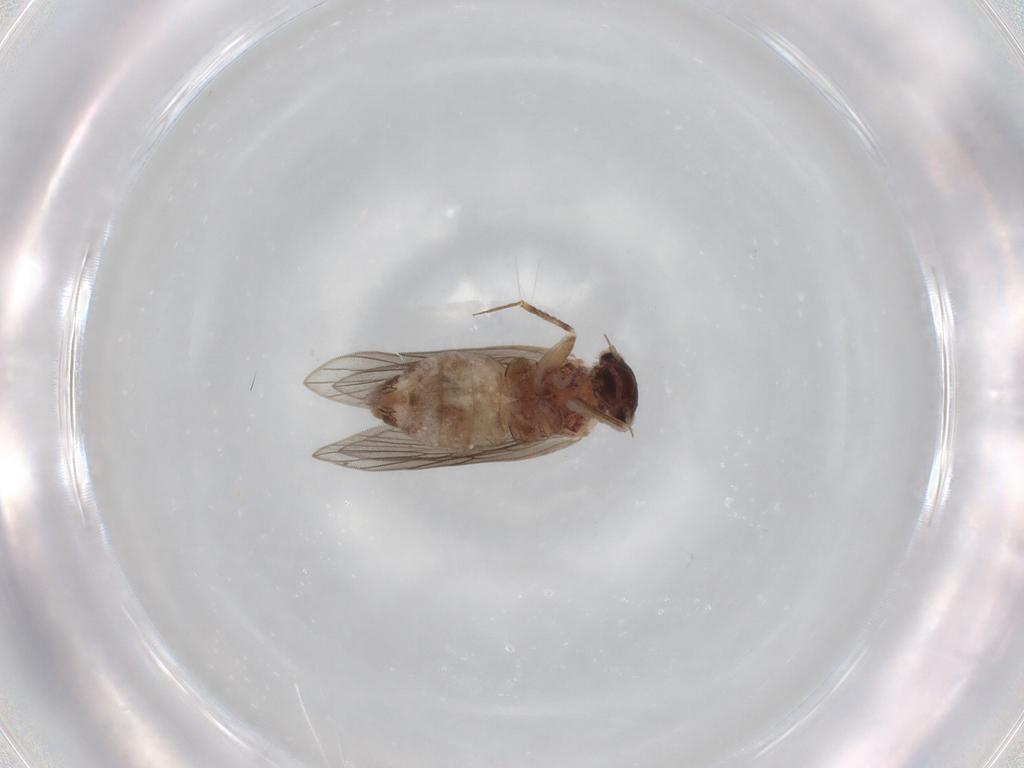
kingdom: Animalia
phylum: Arthropoda
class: Insecta
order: Psocodea
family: Lepidopsocidae
